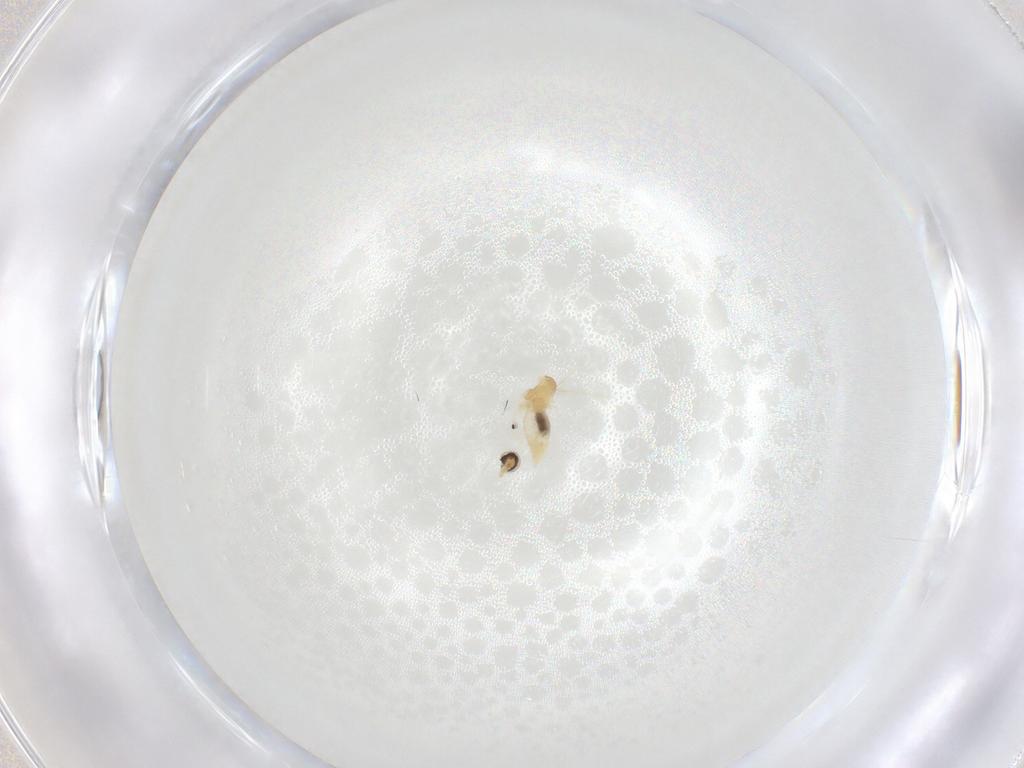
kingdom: Animalia
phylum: Arthropoda
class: Insecta
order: Diptera
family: Cecidomyiidae
